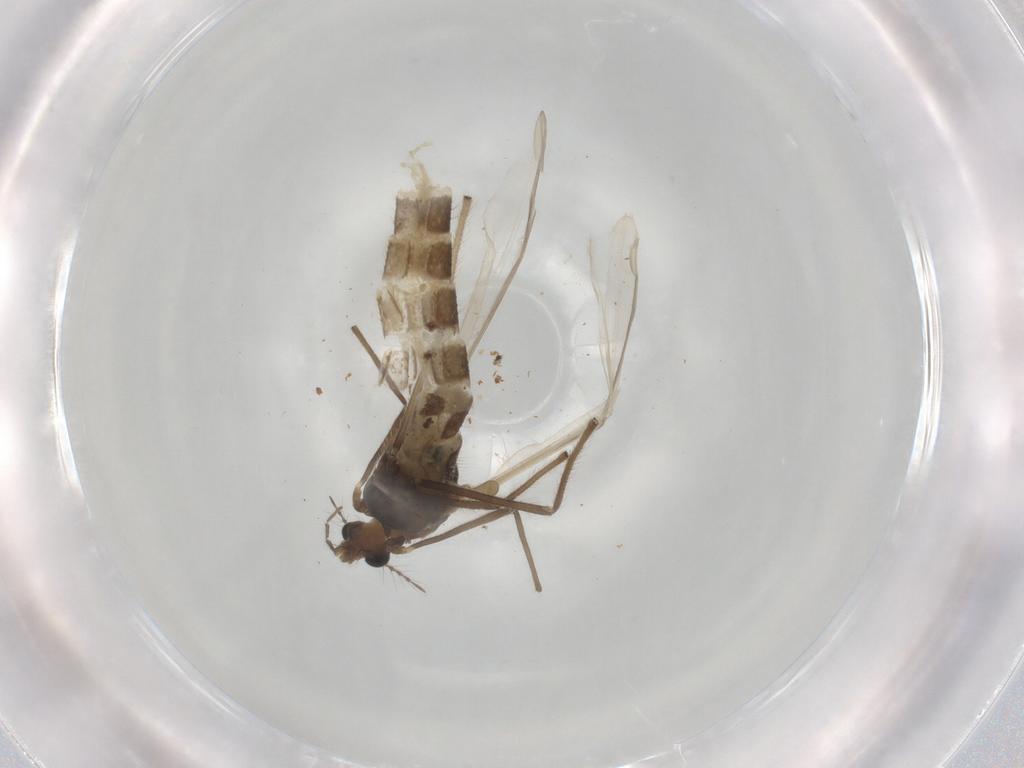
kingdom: Animalia
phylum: Arthropoda
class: Insecta
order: Diptera
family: Chironomidae
